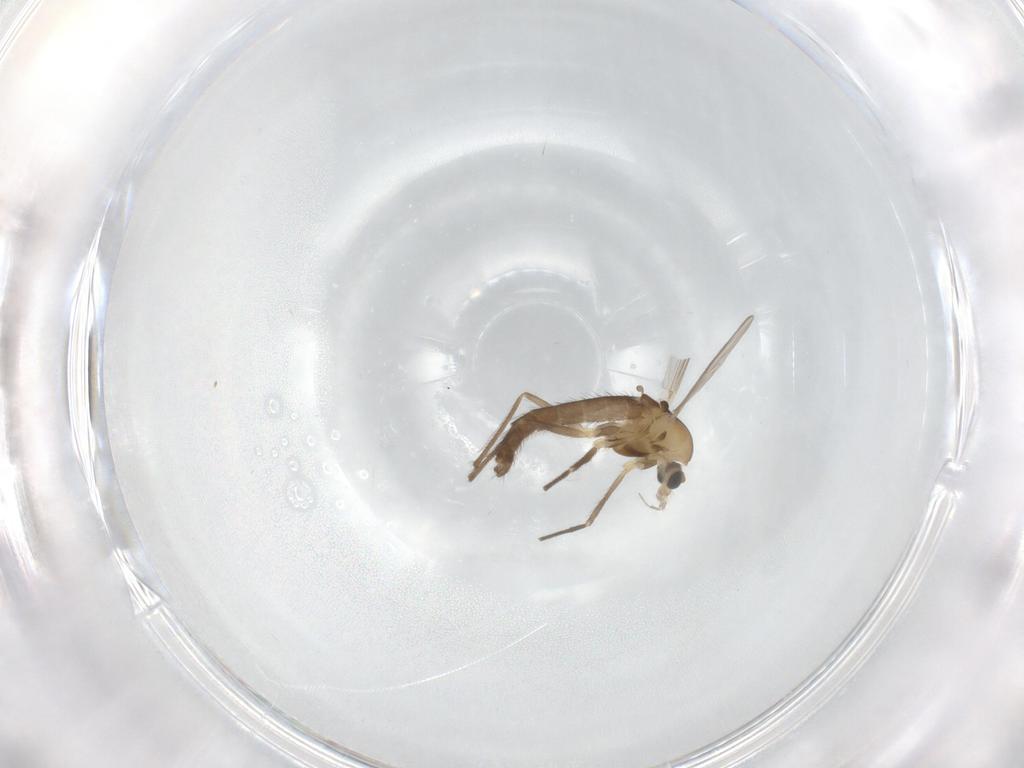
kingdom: Animalia
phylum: Arthropoda
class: Insecta
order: Diptera
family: Chironomidae
